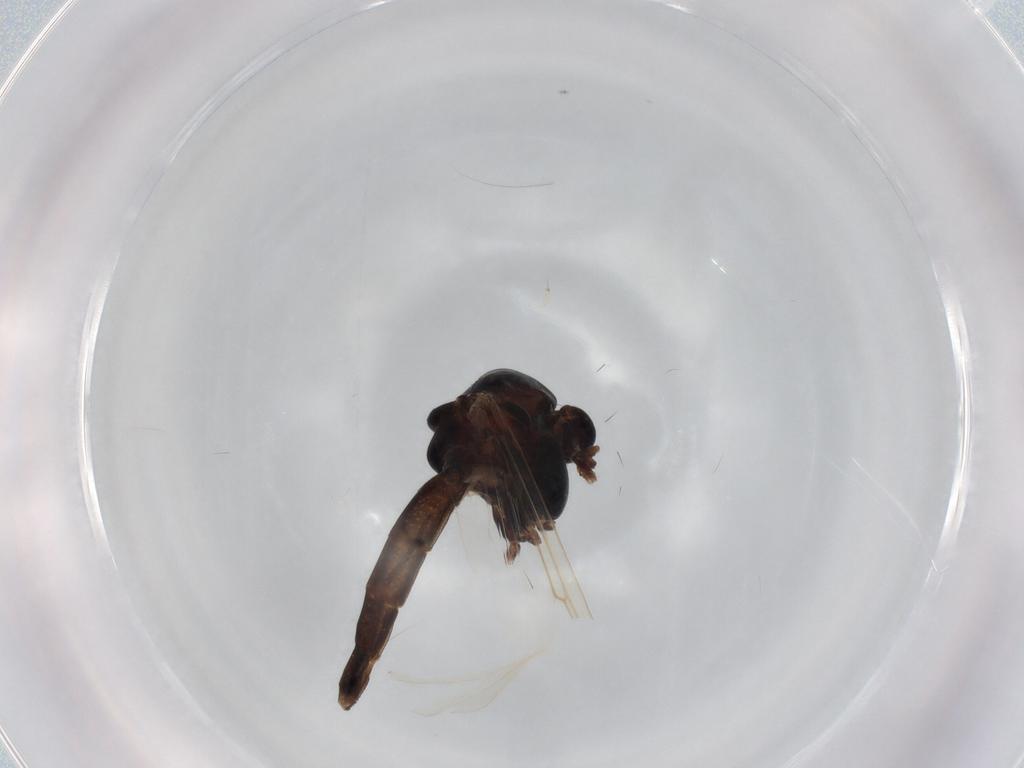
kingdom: Animalia
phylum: Arthropoda
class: Insecta
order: Diptera
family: Chironomidae
